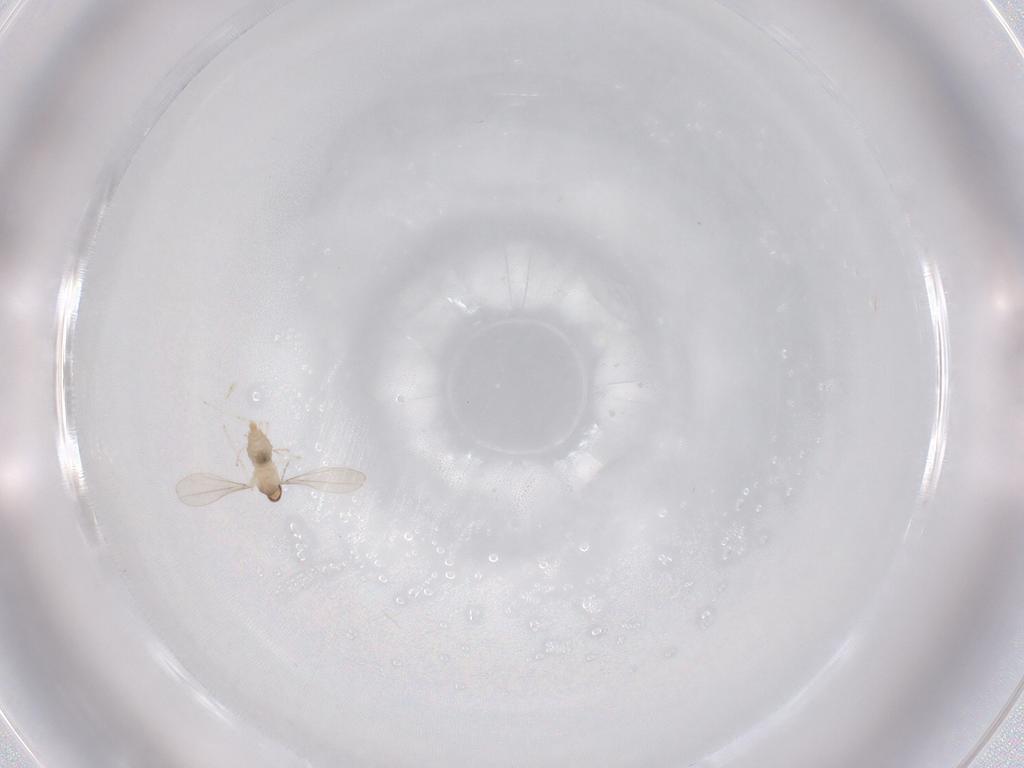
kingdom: Animalia
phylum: Arthropoda
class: Insecta
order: Diptera
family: Cecidomyiidae
